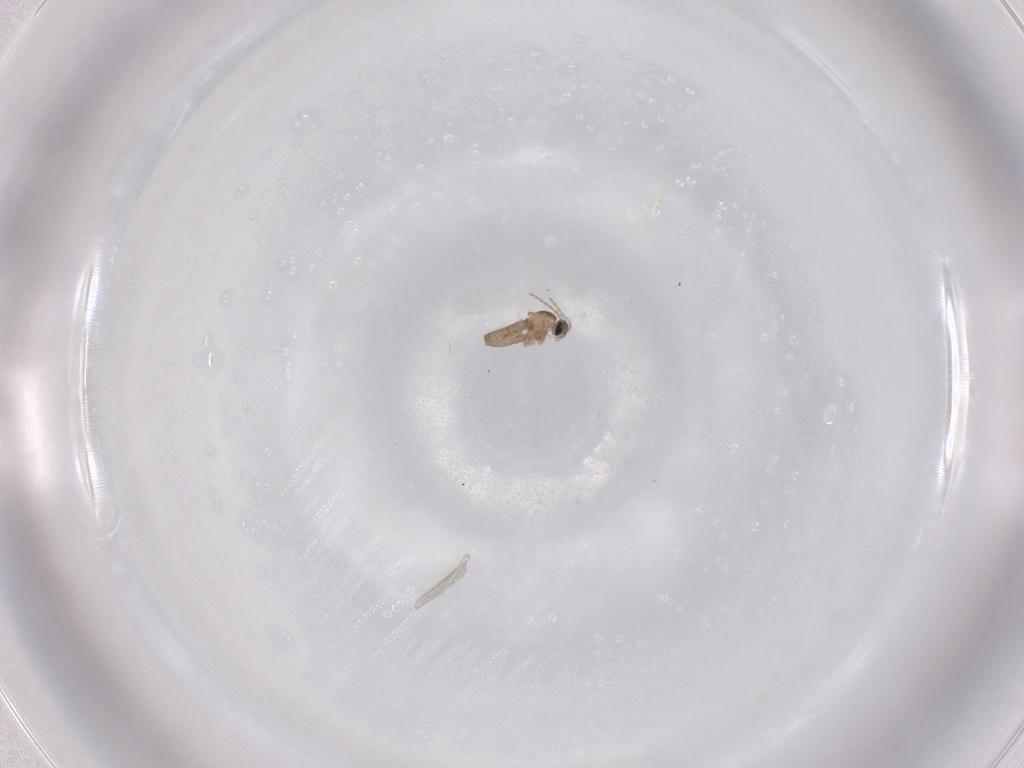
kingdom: Animalia
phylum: Arthropoda
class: Insecta
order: Diptera
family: Cecidomyiidae
